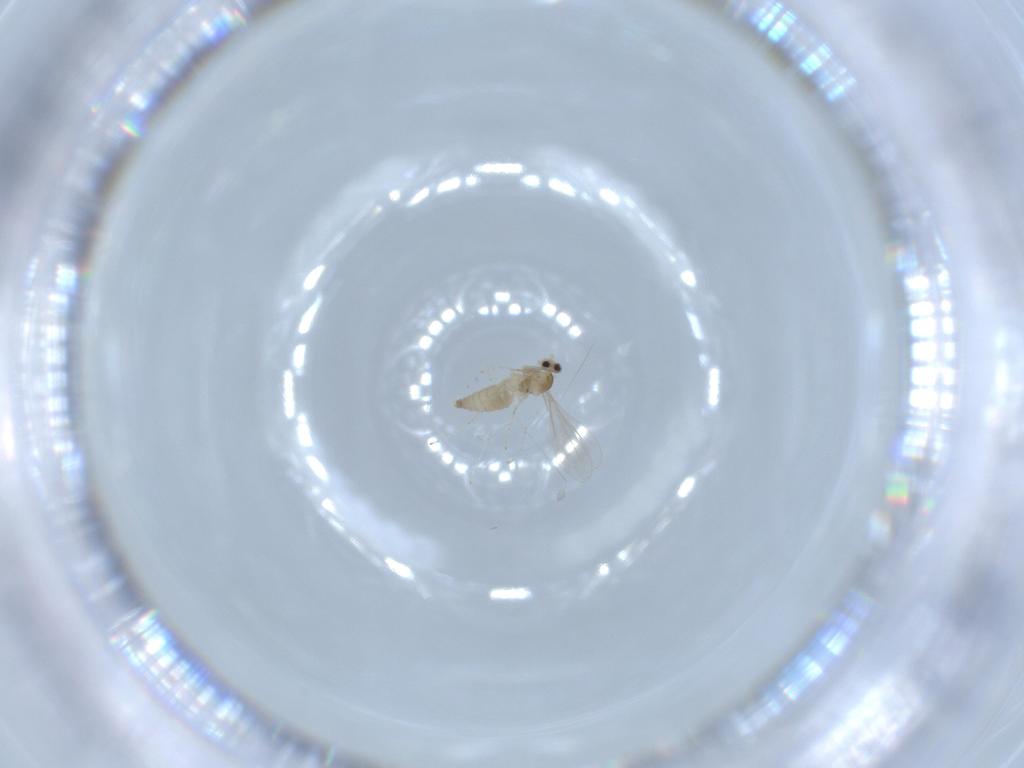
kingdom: Animalia
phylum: Arthropoda
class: Insecta
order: Diptera
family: Cecidomyiidae
